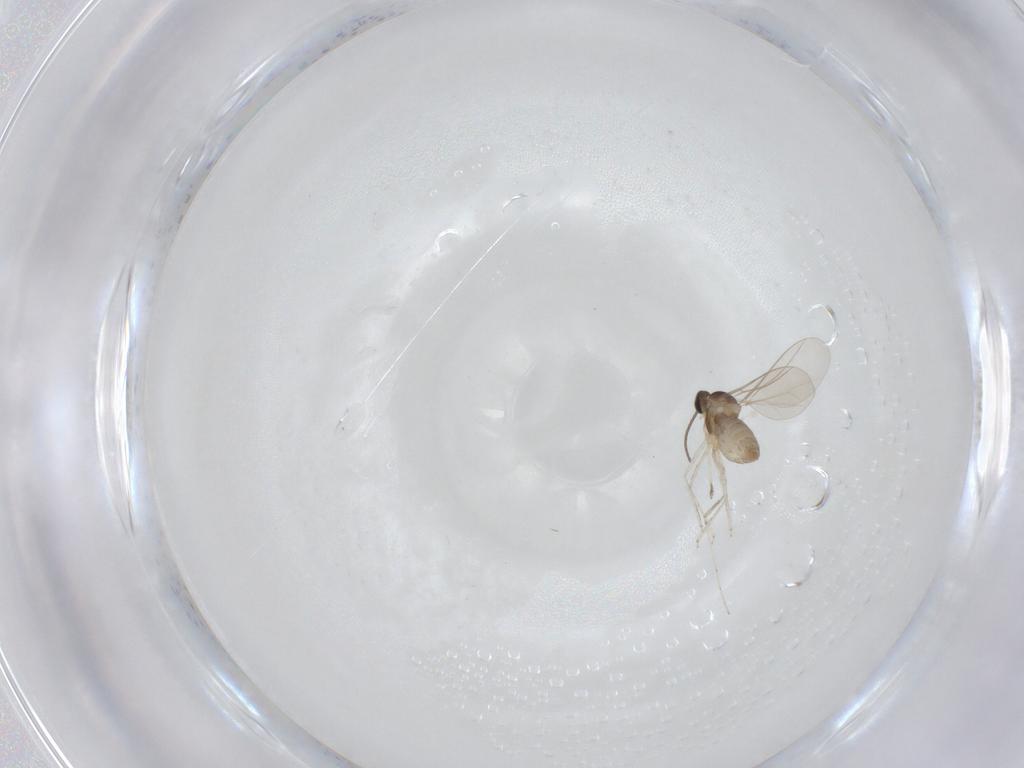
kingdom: Animalia
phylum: Arthropoda
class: Insecta
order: Diptera
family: Cecidomyiidae
